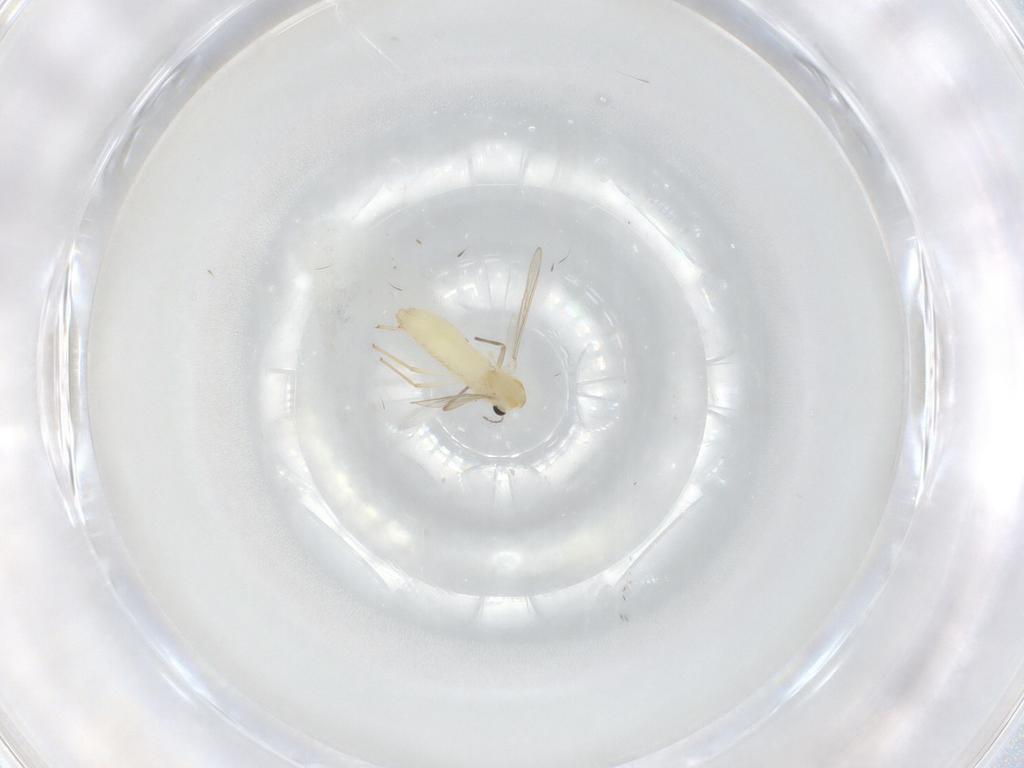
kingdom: Animalia
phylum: Arthropoda
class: Insecta
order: Diptera
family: Chironomidae
